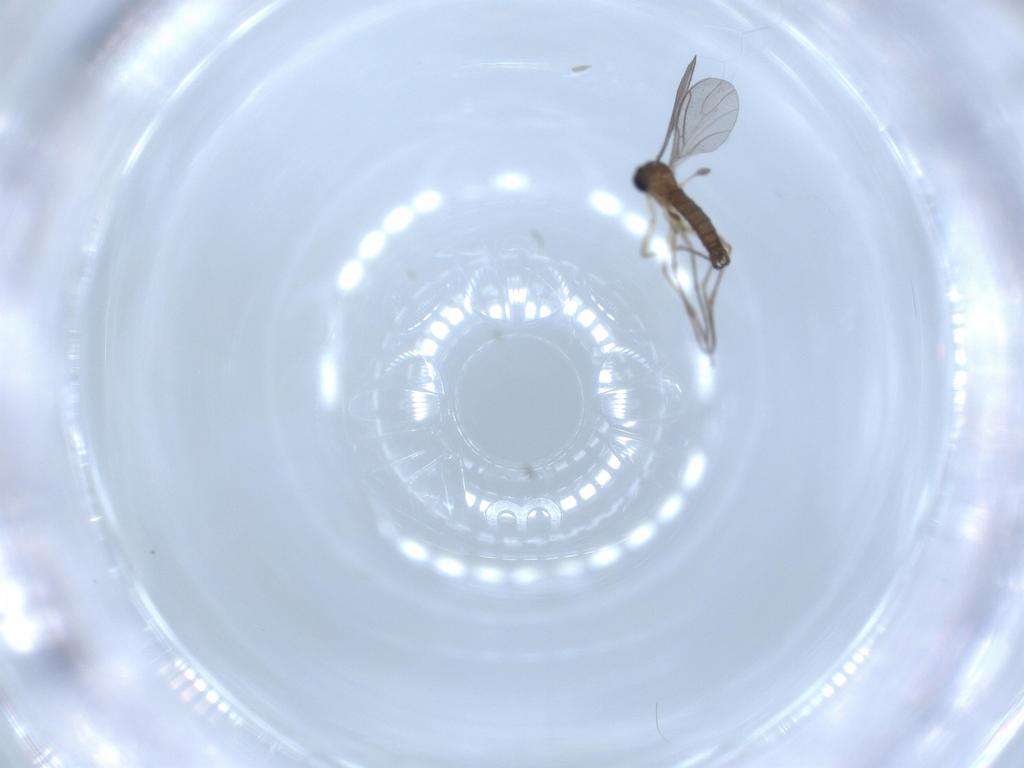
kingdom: Animalia
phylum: Arthropoda
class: Insecta
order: Diptera
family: Sciaridae
